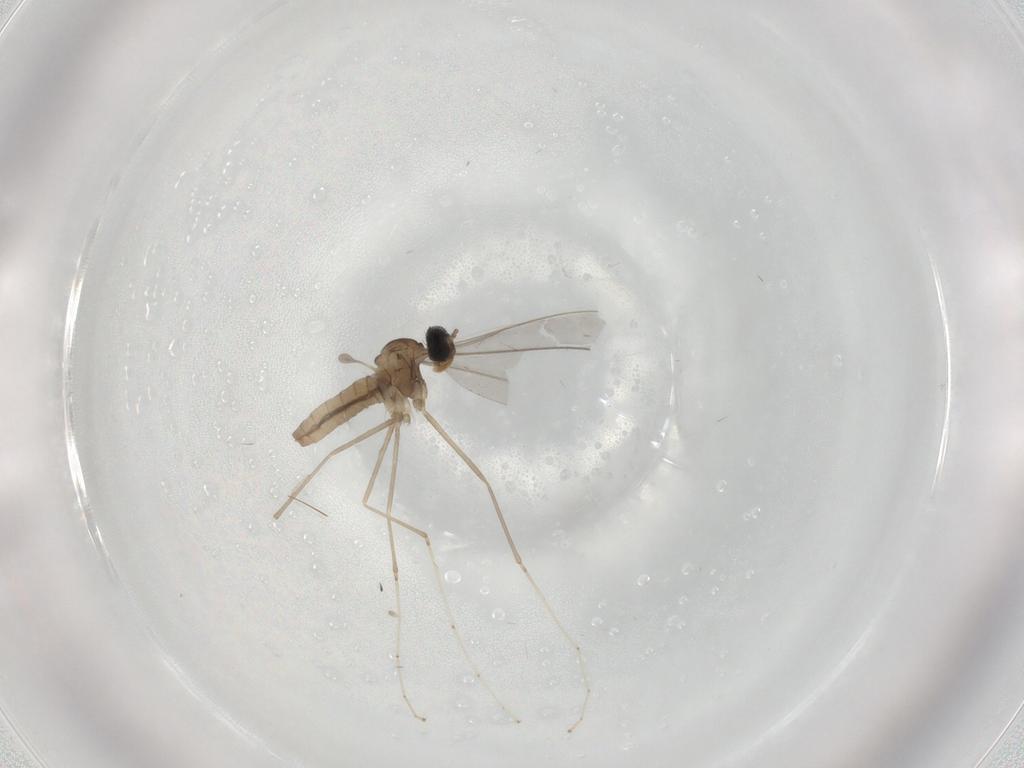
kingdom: Animalia
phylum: Arthropoda
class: Insecta
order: Diptera
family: Cecidomyiidae
